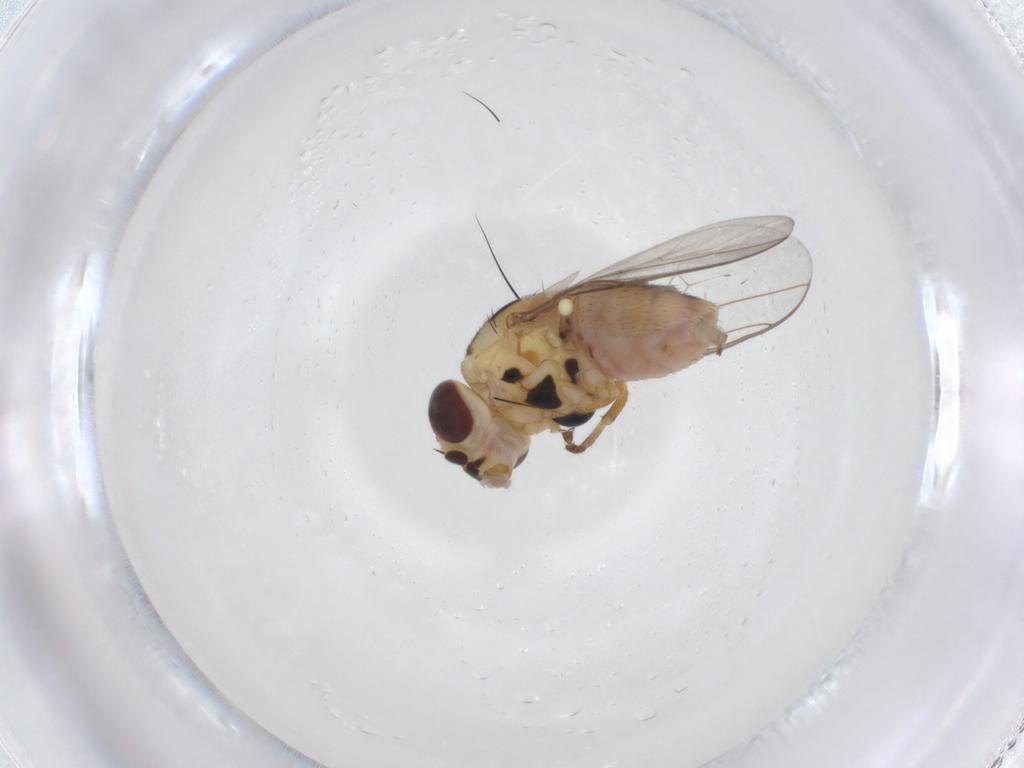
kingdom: Animalia
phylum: Arthropoda
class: Insecta
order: Diptera
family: Chloropidae
